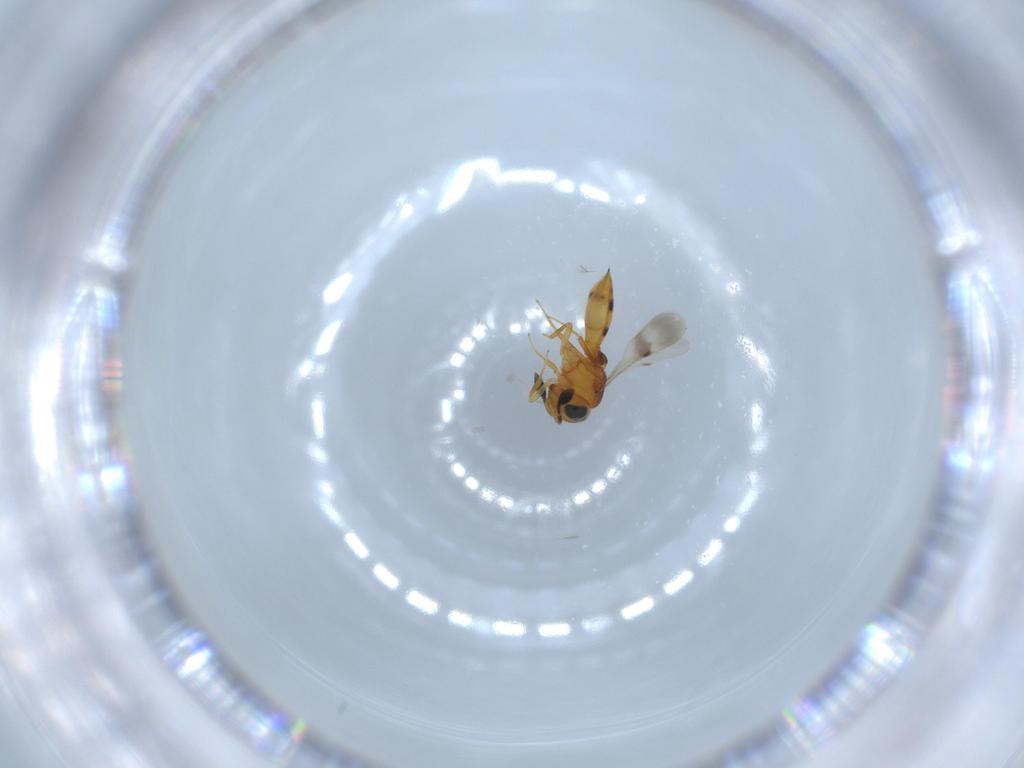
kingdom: Animalia
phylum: Arthropoda
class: Insecta
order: Hymenoptera
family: Scelionidae
